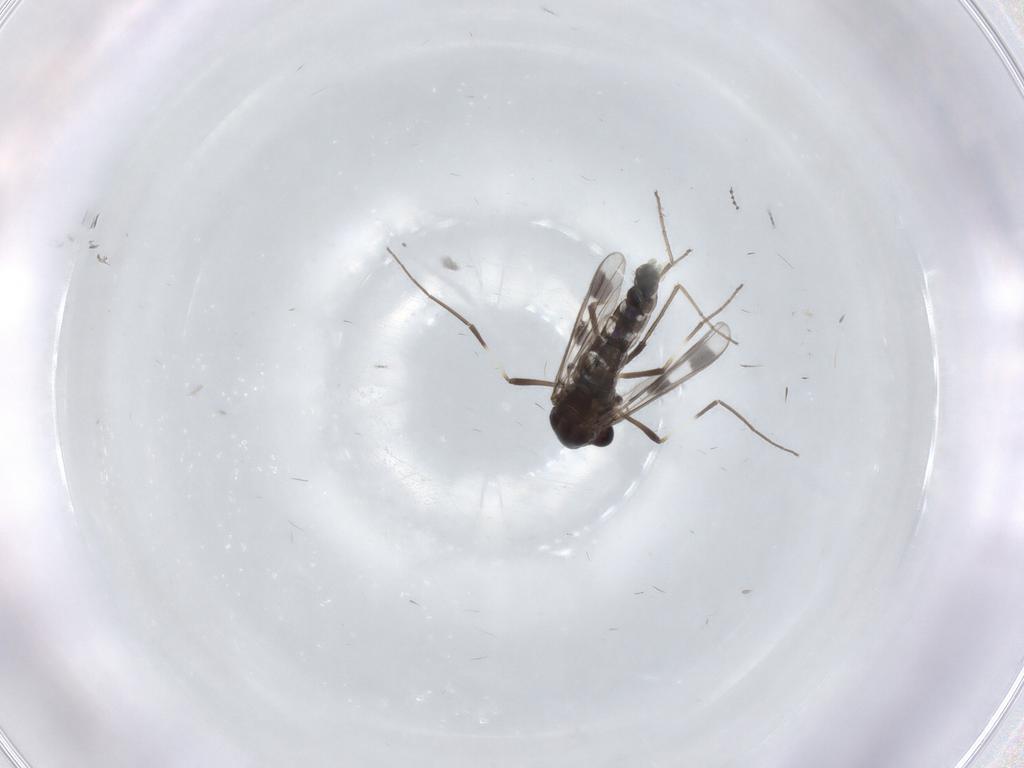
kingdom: Animalia
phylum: Arthropoda
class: Insecta
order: Diptera
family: Chironomidae
